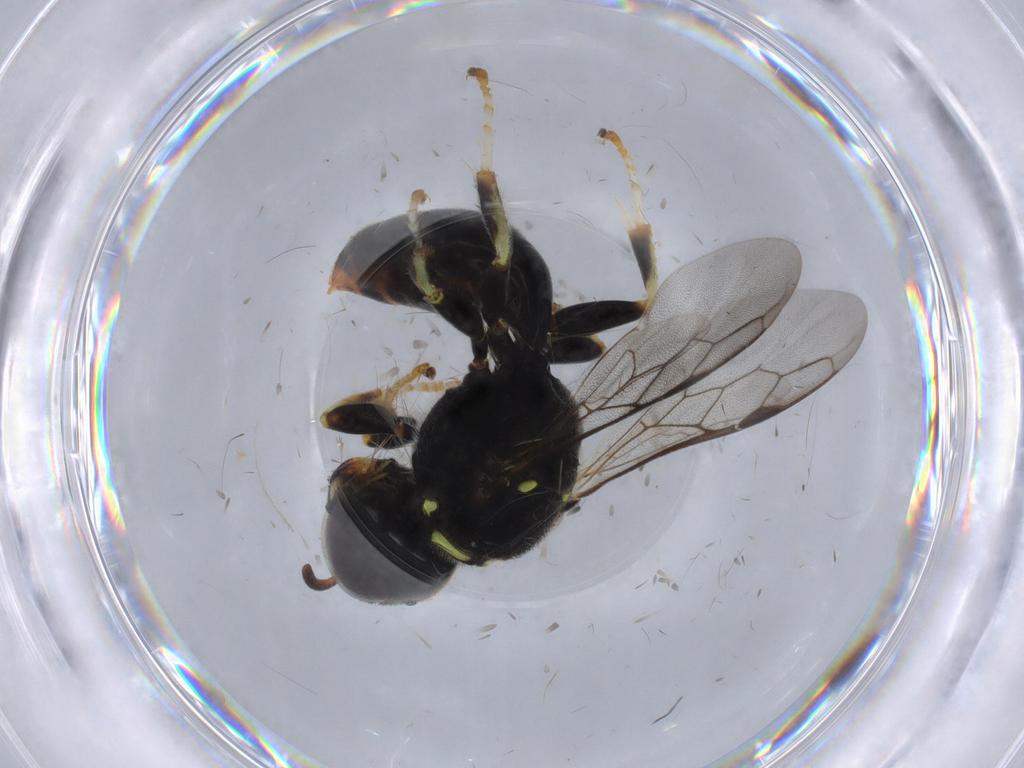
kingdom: Animalia
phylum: Arthropoda
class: Insecta
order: Hymenoptera
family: Crabronidae
